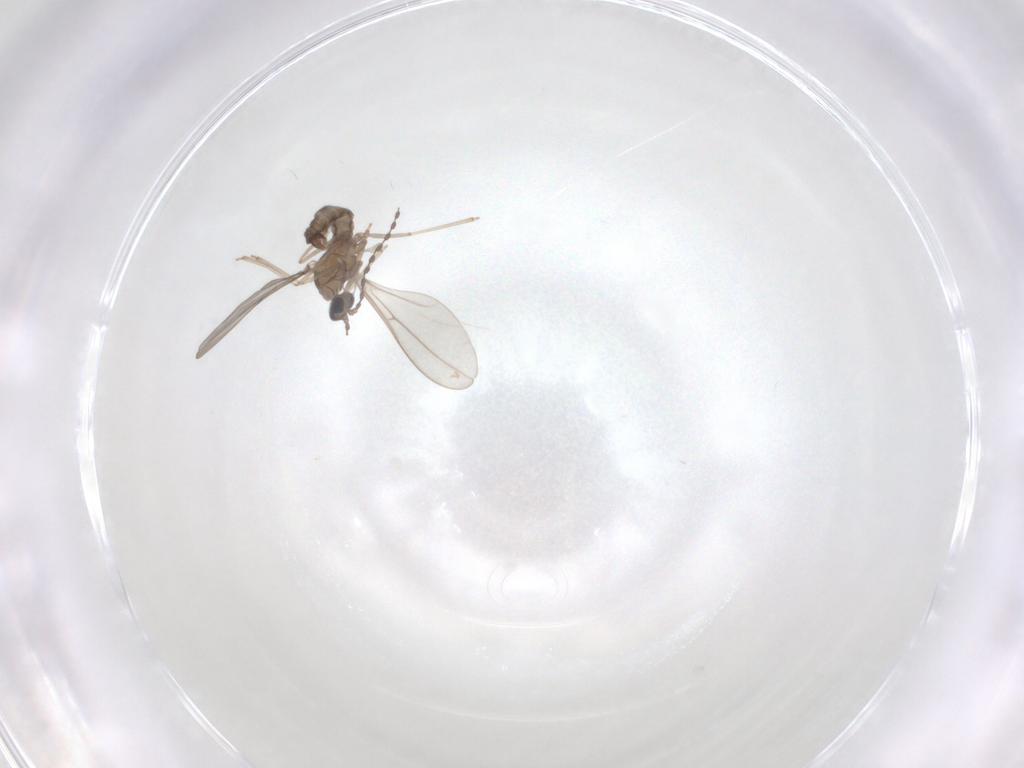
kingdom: Animalia
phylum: Arthropoda
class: Insecta
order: Diptera
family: Cecidomyiidae
